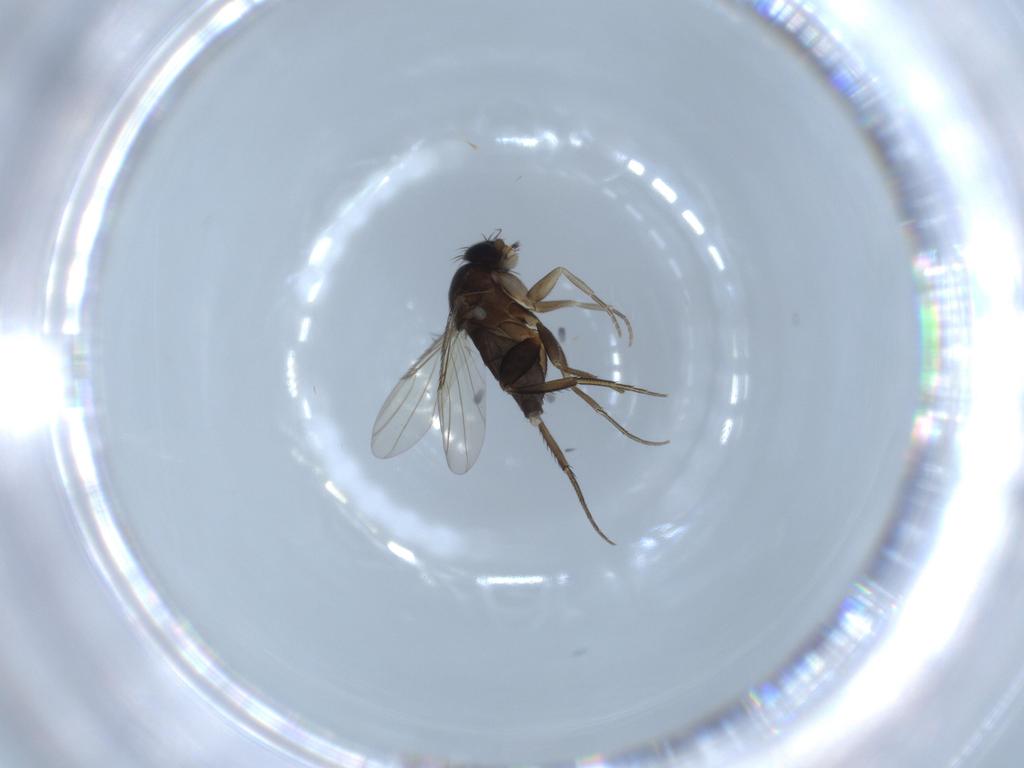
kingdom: Animalia
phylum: Arthropoda
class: Insecta
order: Diptera
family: Phoridae
